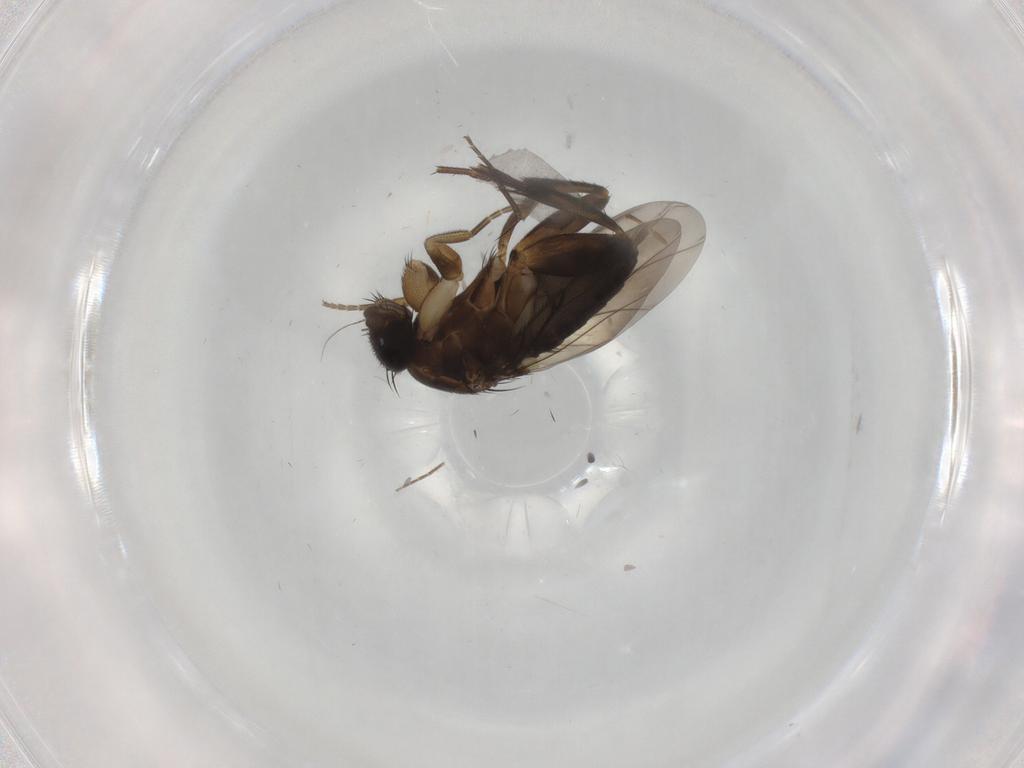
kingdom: Animalia
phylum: Arthropoda
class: Insecta
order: Diptera
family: Phoridae
